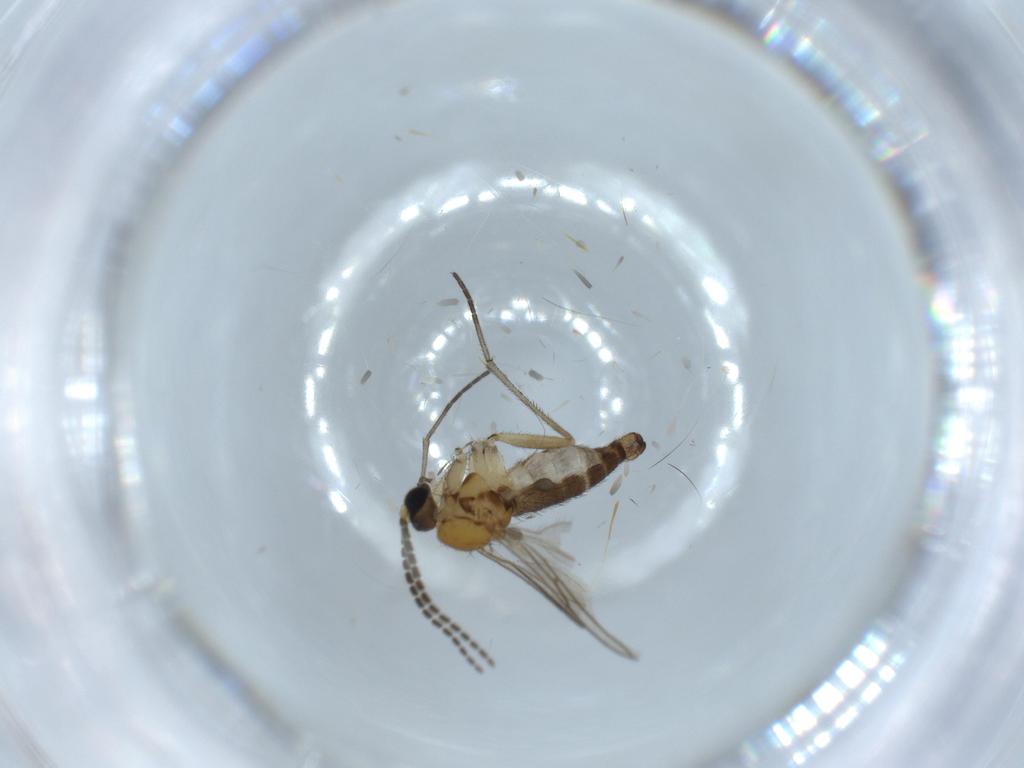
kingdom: Animalia
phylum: Arthropoda
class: Insecta
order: Diptera
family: Sciaridae
